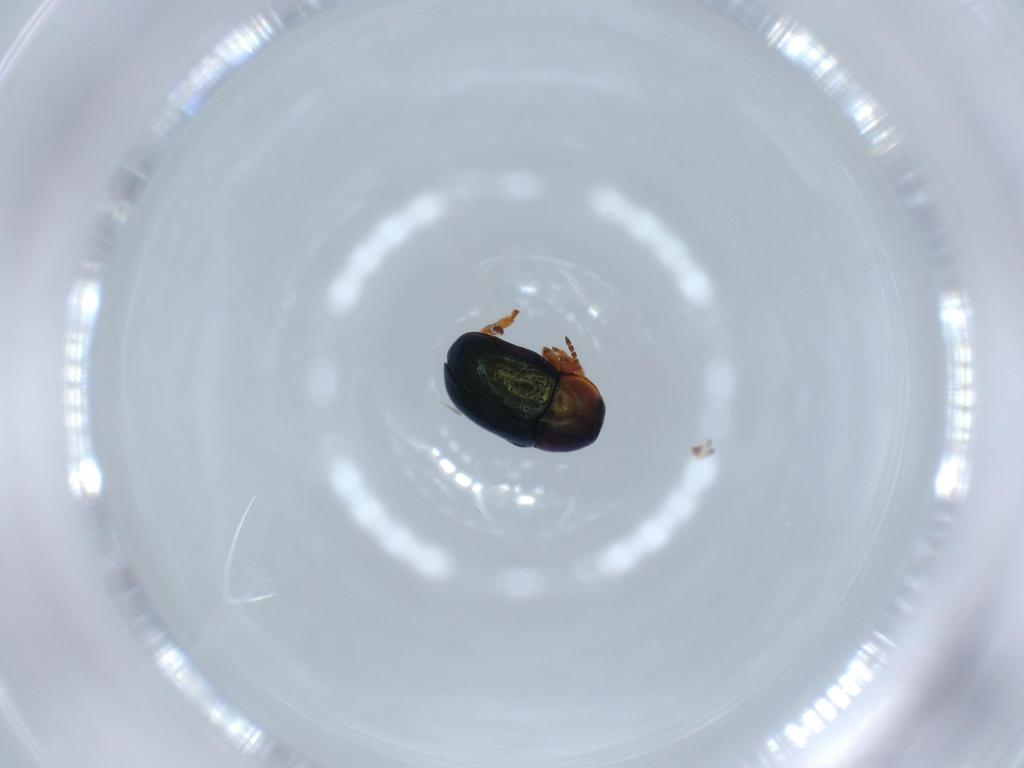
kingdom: Animalia
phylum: Arthropoda
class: Insecta
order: Coleoptera
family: Chrysomelidae
